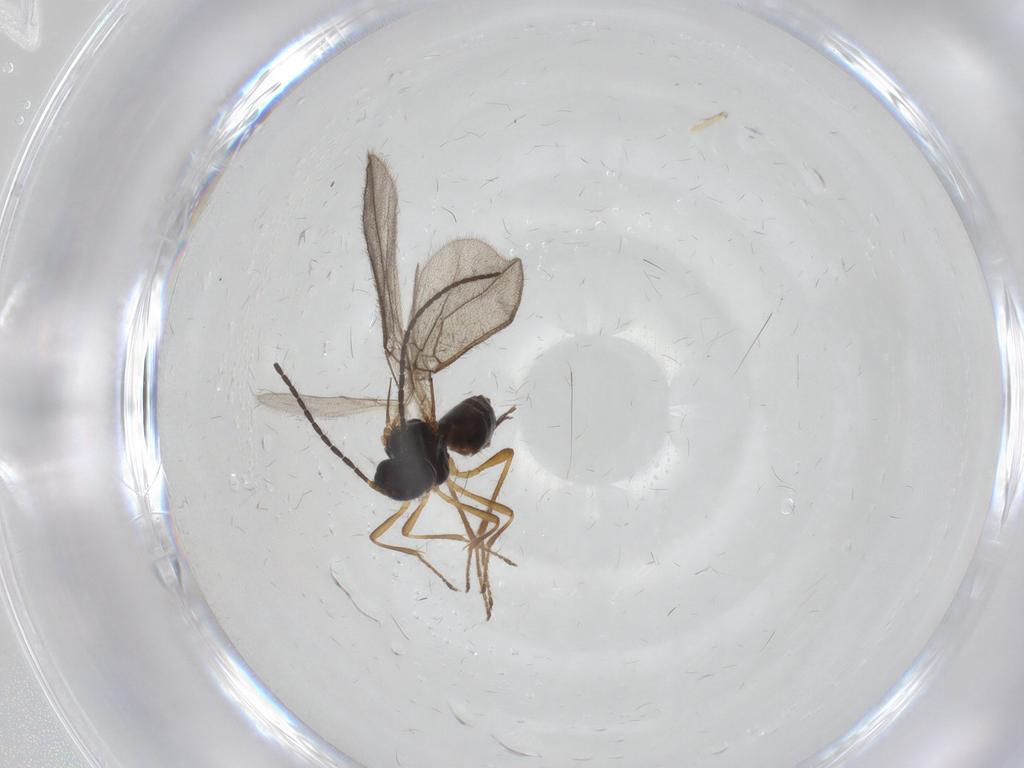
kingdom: Animalia
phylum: Arthropoda
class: Insecta
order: Hymenoptera
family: Braconidae
